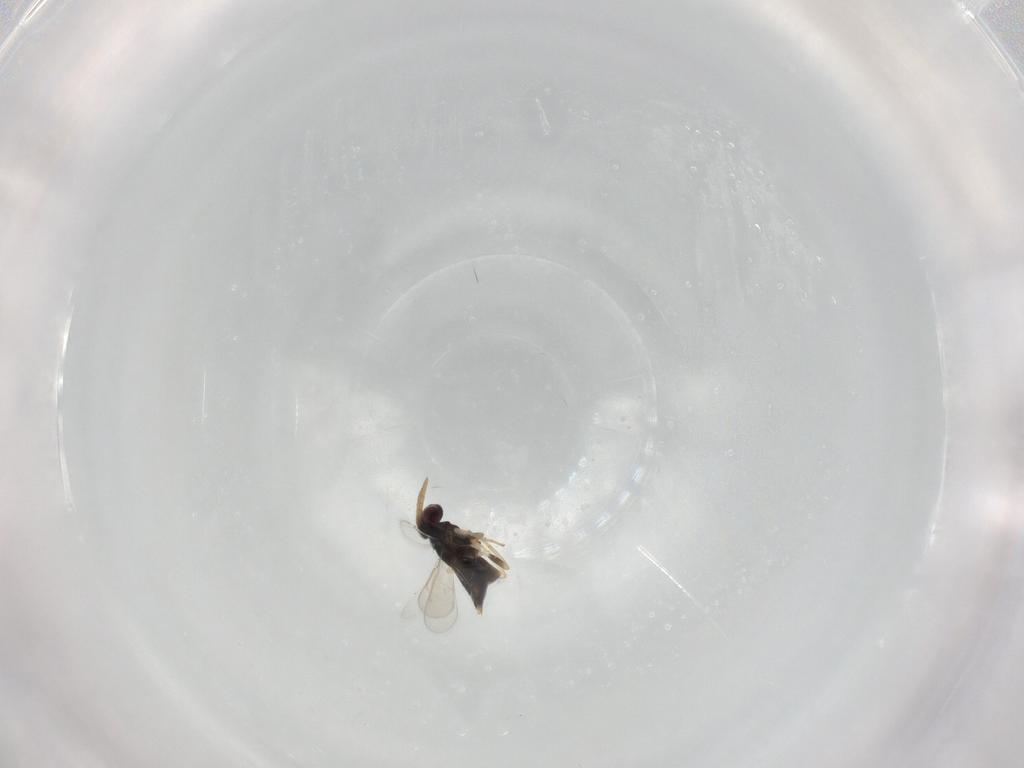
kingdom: Animalia
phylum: Arthropoda
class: Insecta
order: Hymenoptera
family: Aphelinidae
